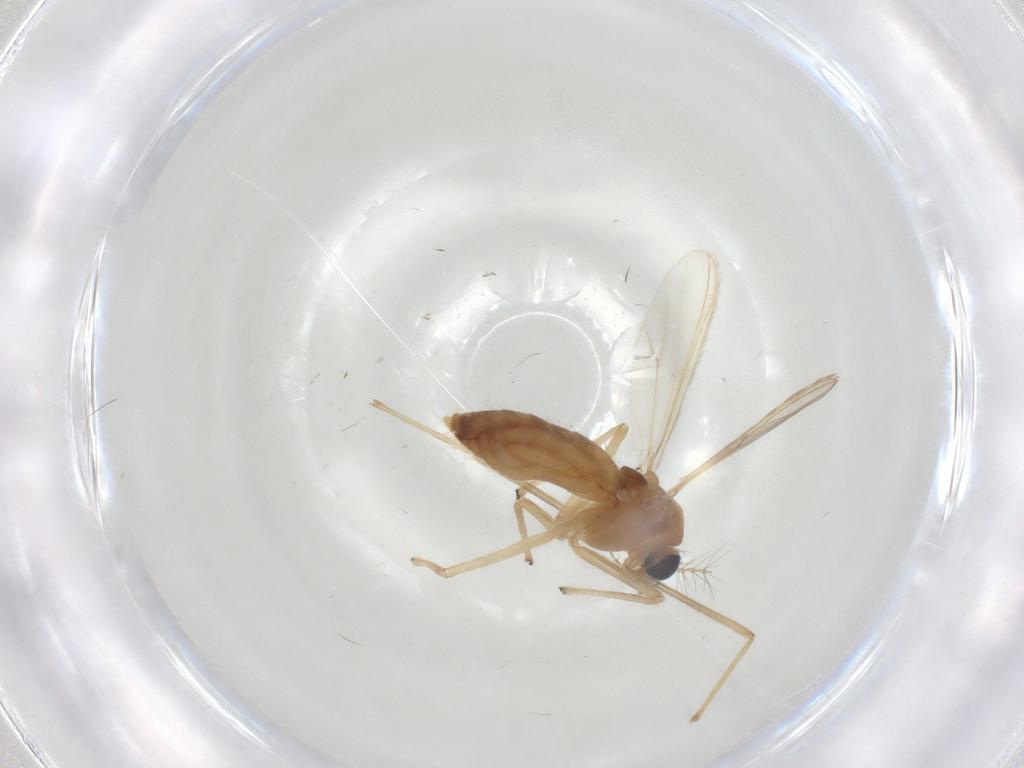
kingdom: Animalia
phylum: Arthropoda
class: Insecta
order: Diptera
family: Chironomidae
